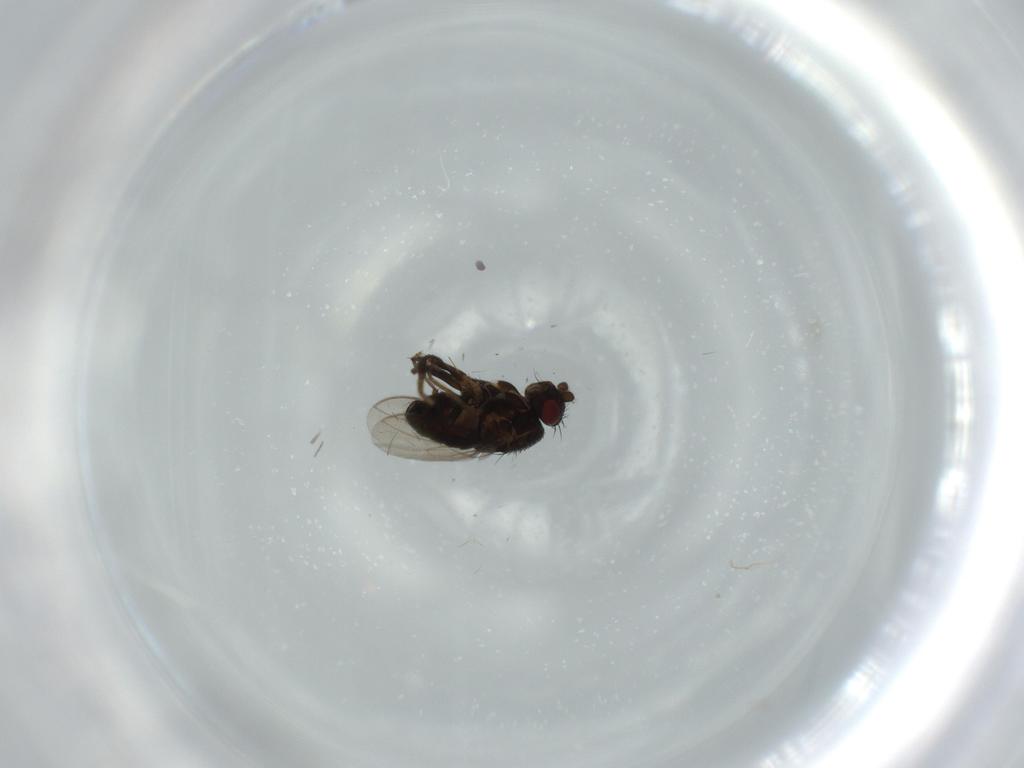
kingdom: Animalia
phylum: Arthropoda
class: Insecta
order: Diptera
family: Sphaeroceridae
